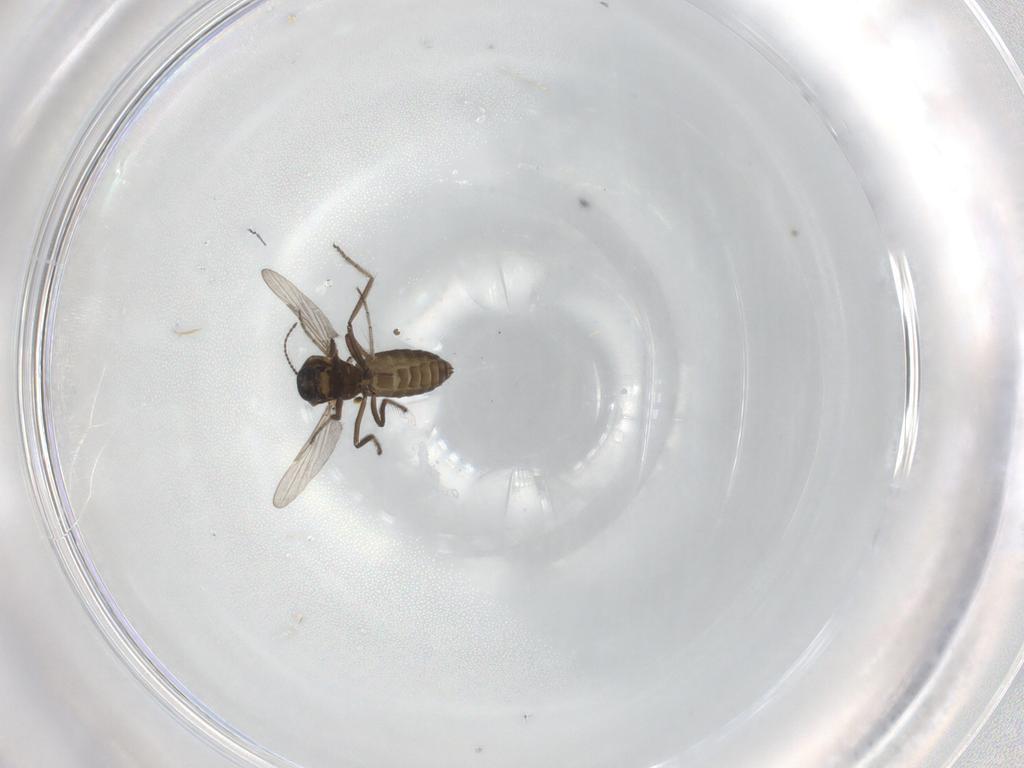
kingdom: Animalia
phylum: Arthropoda
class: Insecta
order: Diptera
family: Ceratopogonidae
